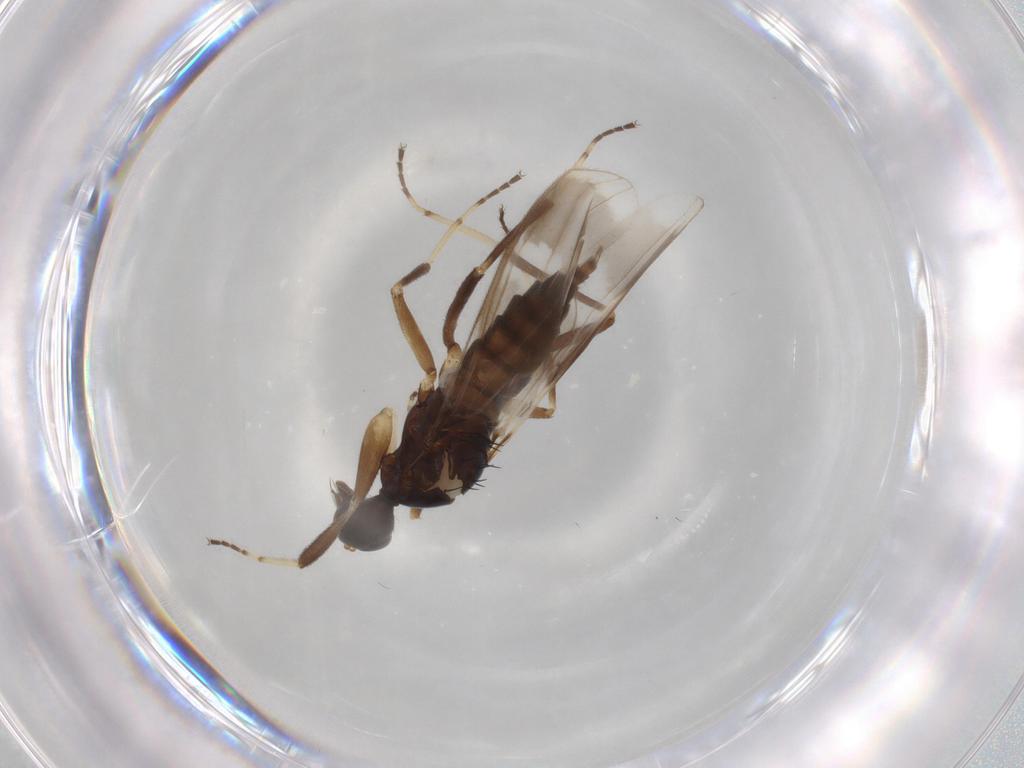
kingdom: Animalia
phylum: Arthropoda
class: Insecta
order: Diptera
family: Hybotidae
